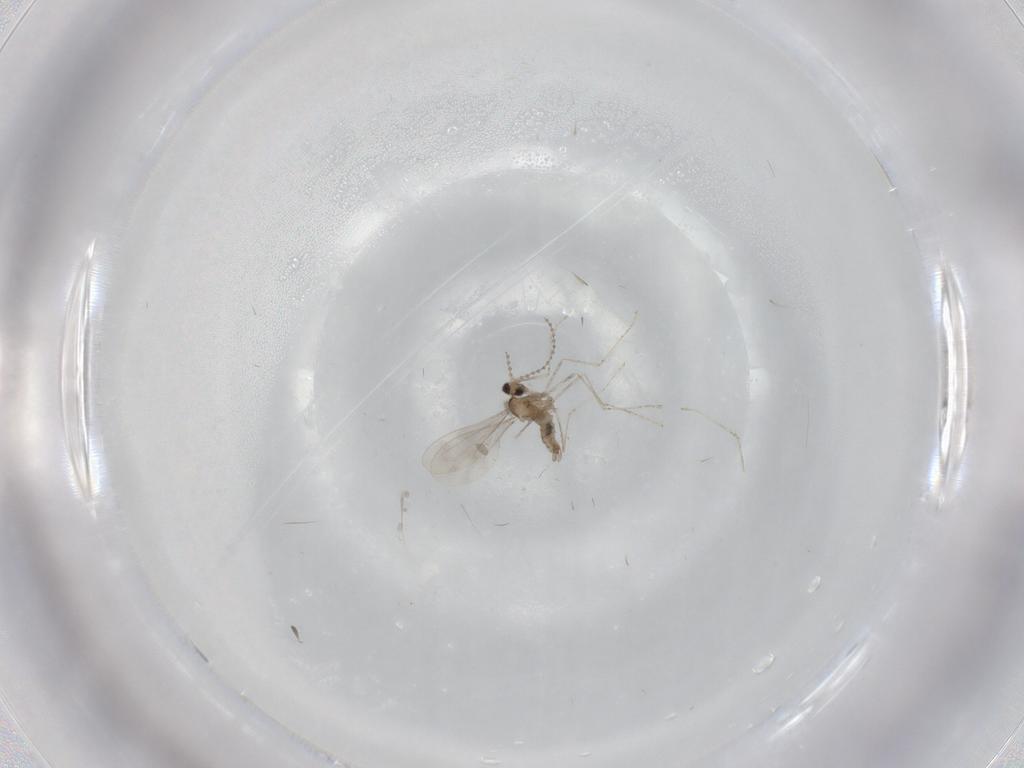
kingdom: Animalia
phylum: Arthropoda
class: Insecta
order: Diptera
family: Cecidomyiidae
